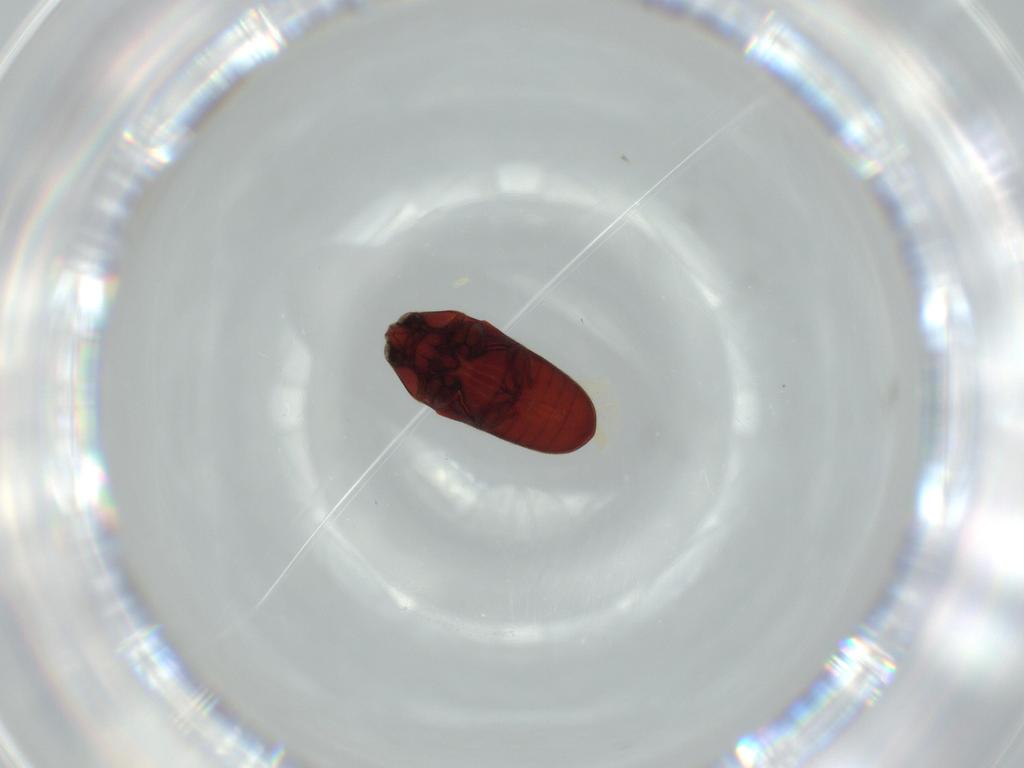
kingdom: Animalia
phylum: Arthropoda
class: Insecta
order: Coleoptera
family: Throscidae
